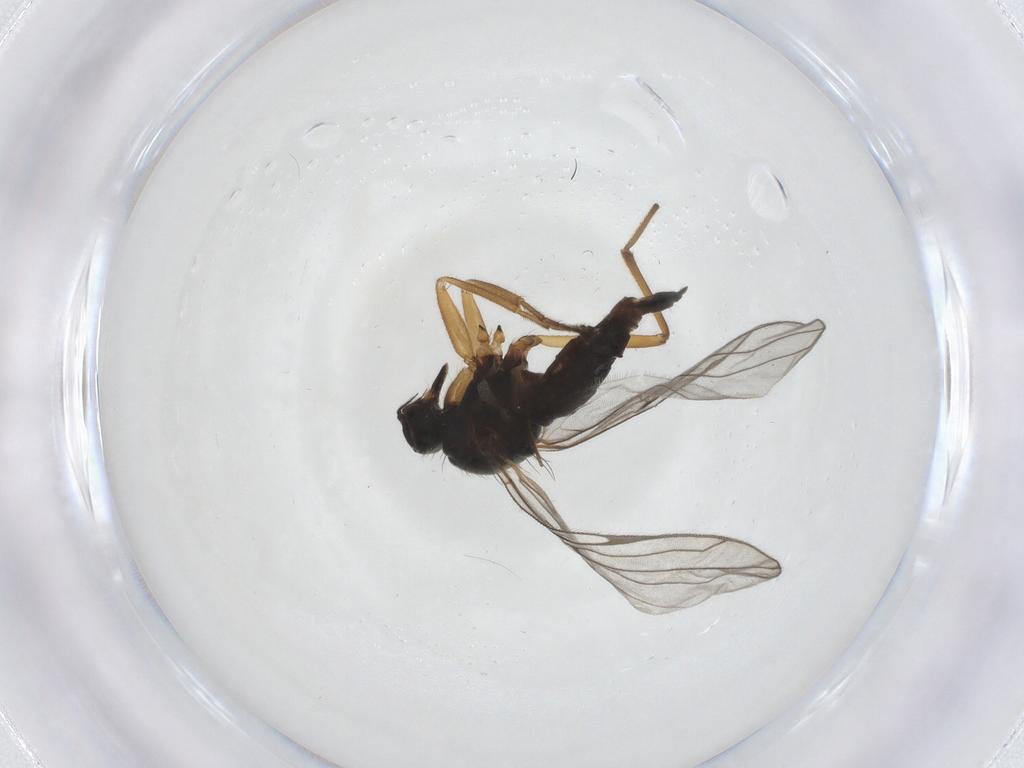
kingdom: Animalia
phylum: Arthropoda
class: Insecta
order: Diptera
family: Hybotidae
